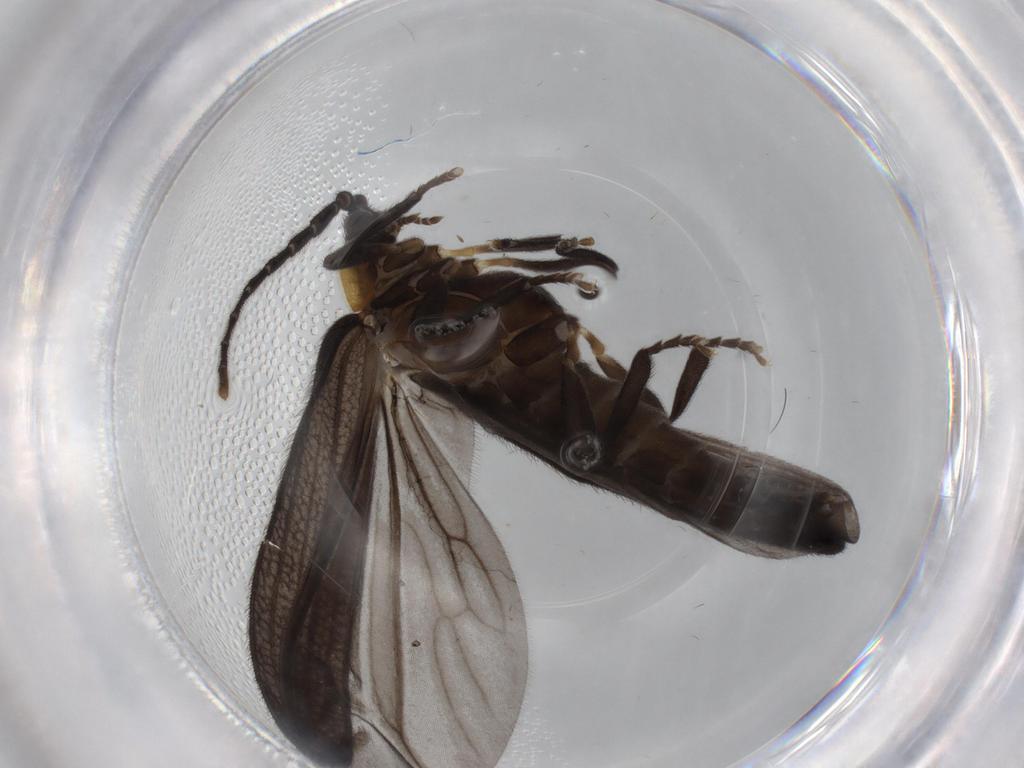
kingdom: Animalia
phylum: Arthropoda
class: Insecta
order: Coleoptera
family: Lycidae
